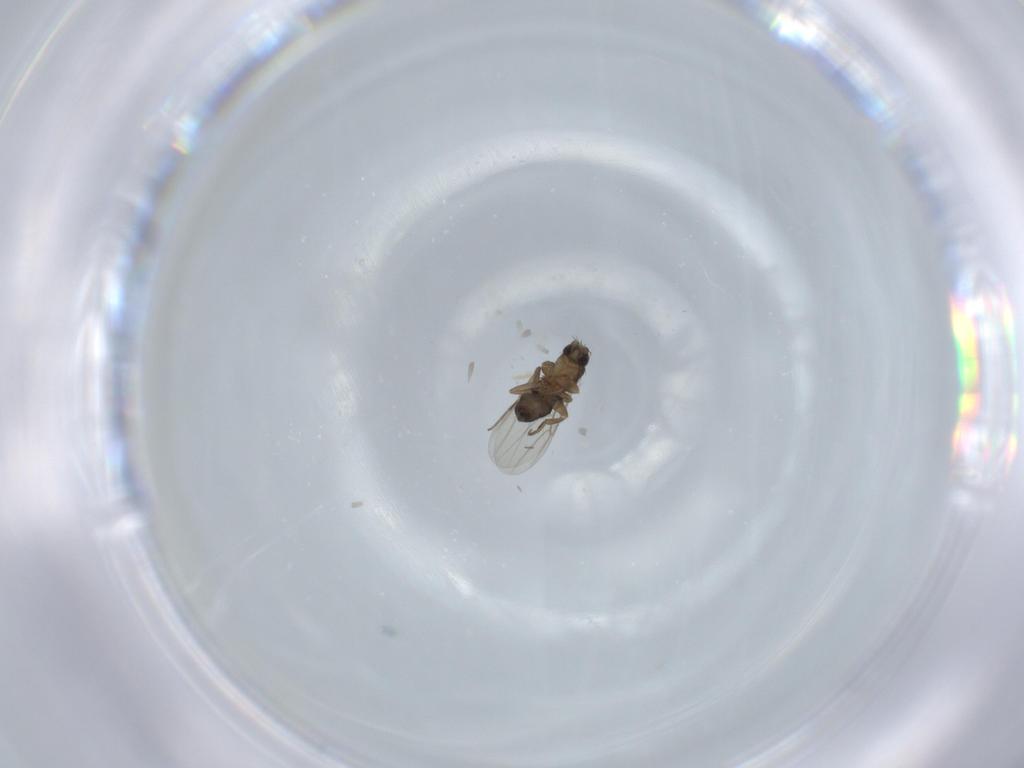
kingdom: Animalia
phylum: Arthropoda
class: Insecta
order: Diptera
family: Phoridae
